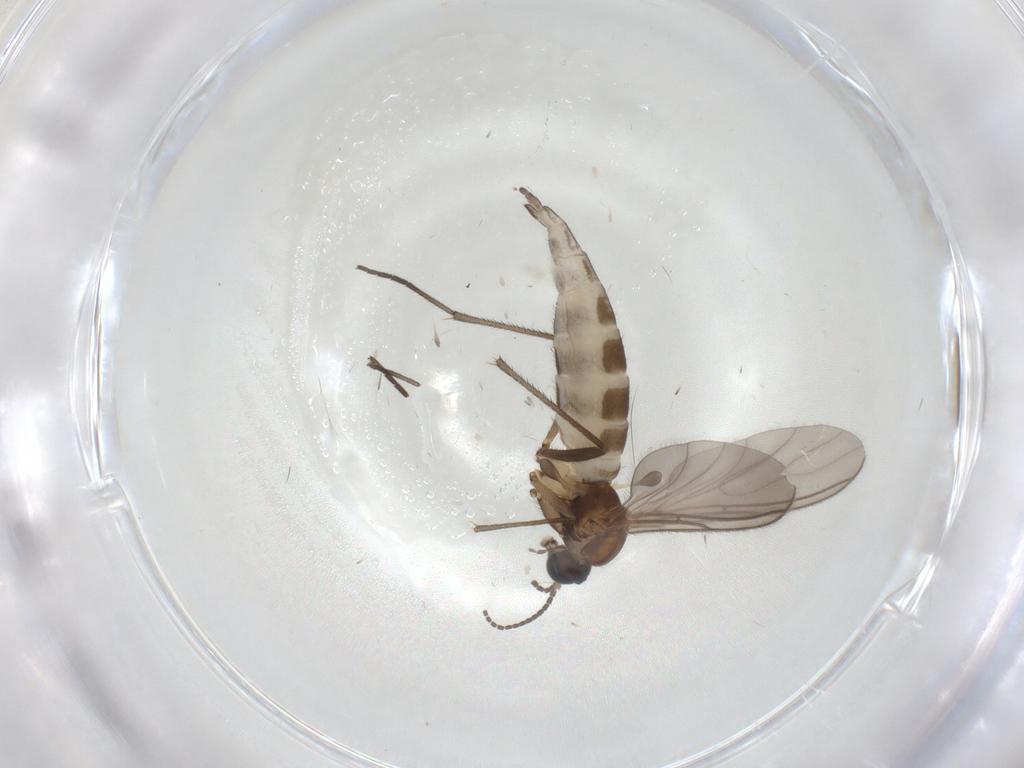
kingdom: Animalia
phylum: Arthropoda
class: Insecta
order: Diptera
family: Sciaridae
